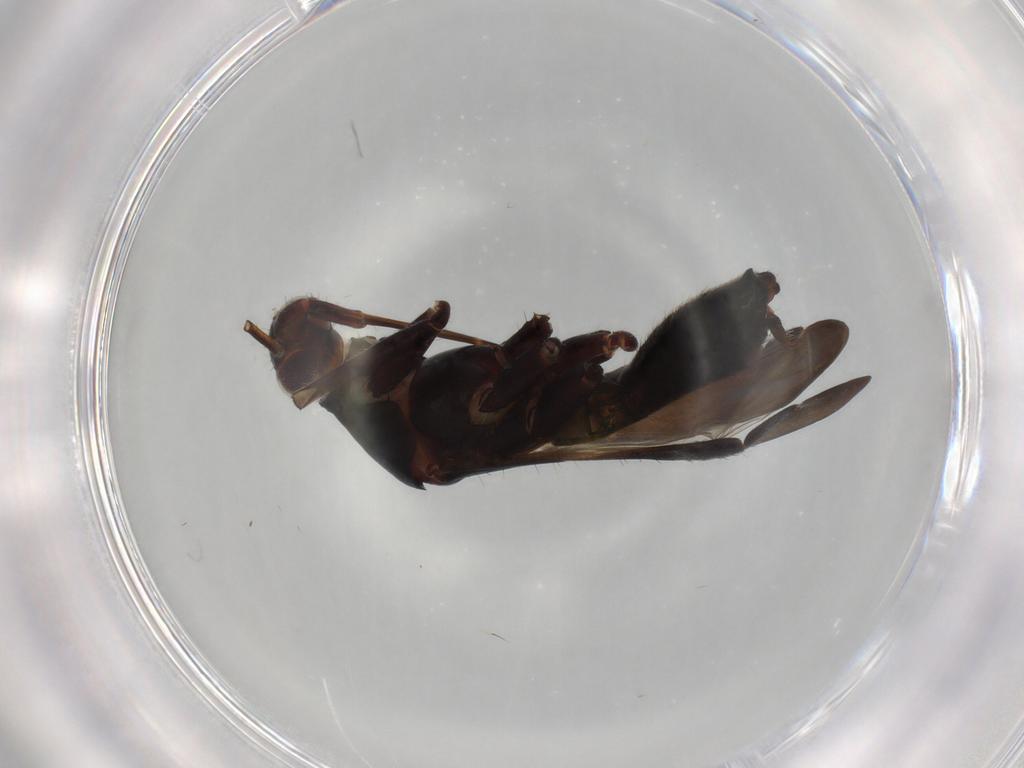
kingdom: Animalia
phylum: Arthropoda
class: Insecta
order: Hemiptera
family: Miridae
